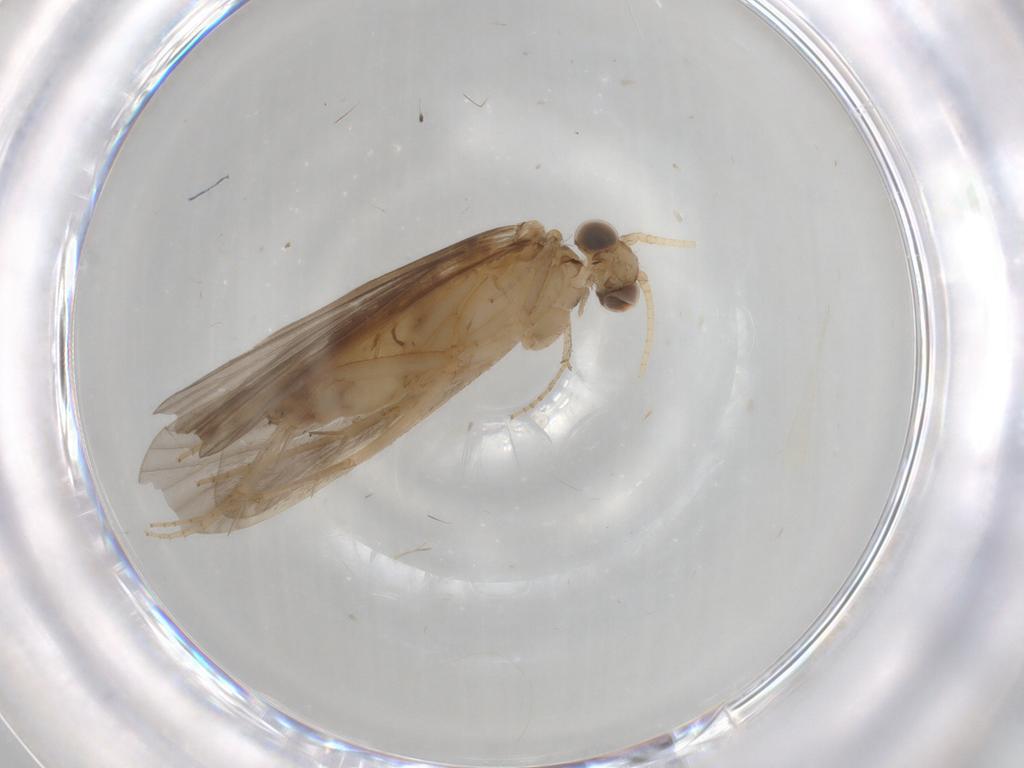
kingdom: Animalia
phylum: Arthropoda
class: Insecta
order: Trichoptera
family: Ecnomidae
